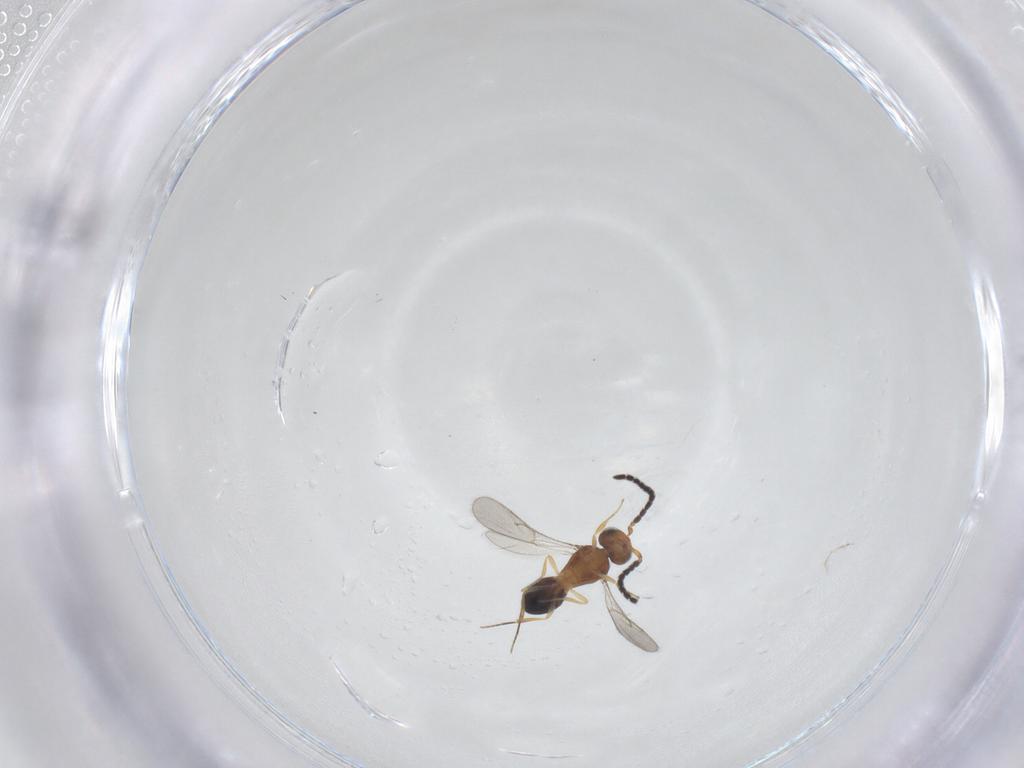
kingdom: Animalia
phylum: Arthropoda
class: Insecta
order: Hymenoptera
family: Scelionidae
